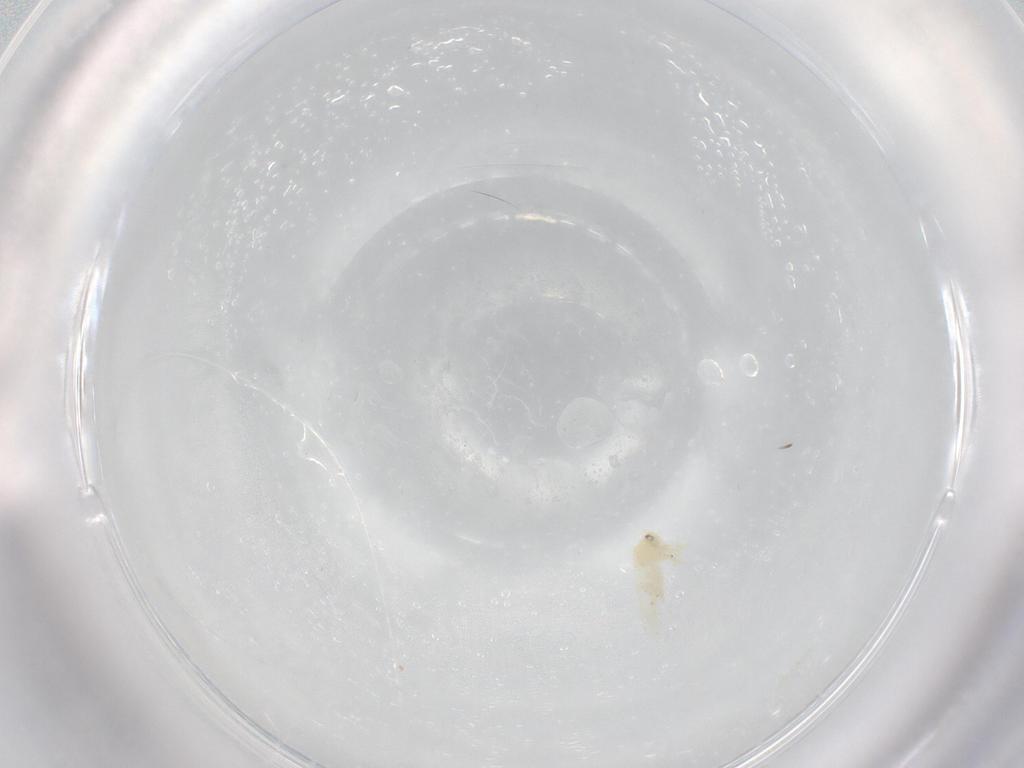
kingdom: Animalia
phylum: Arthropoda
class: Insecta
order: Hemiptera
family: Aleyrodidae
